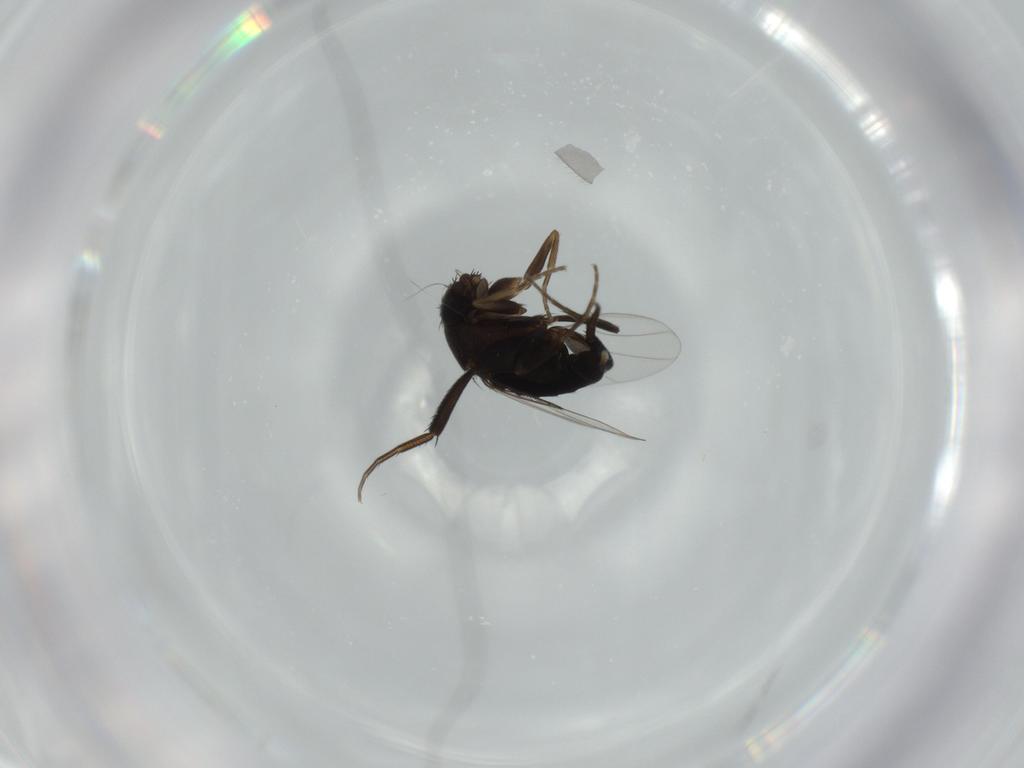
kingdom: Animalia
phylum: Arthropoda
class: Insecta
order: Diptera
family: Phoridae
